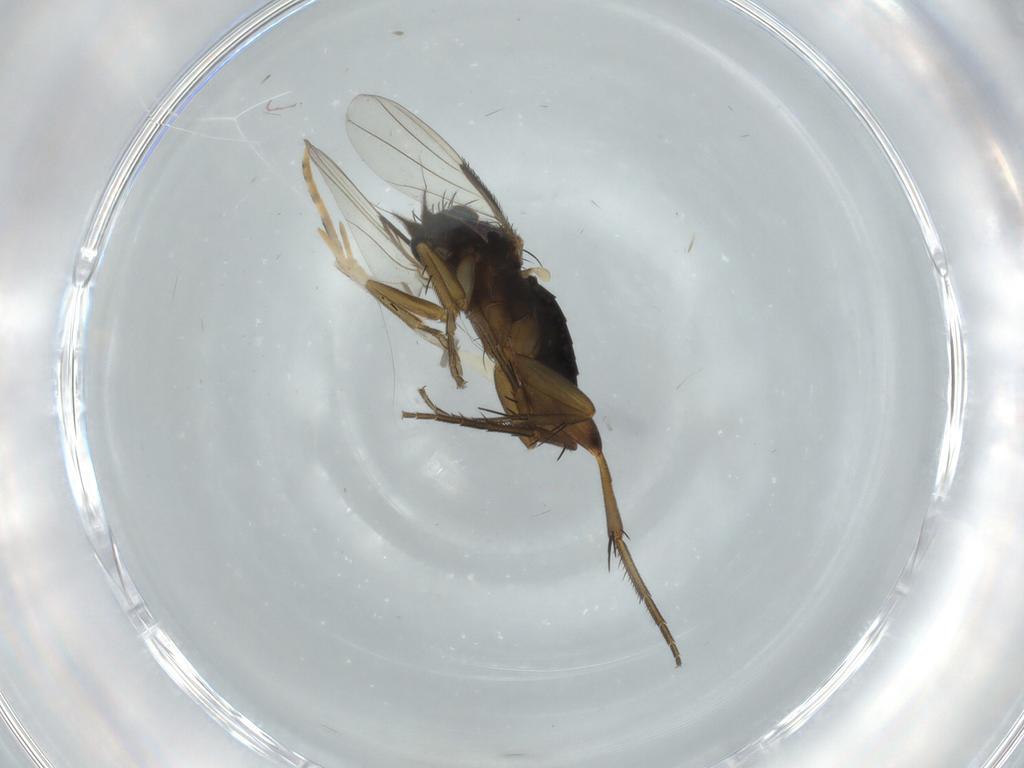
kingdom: Animalia
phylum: Arthropoda
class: Insecta
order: Diptera
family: Phoridae
